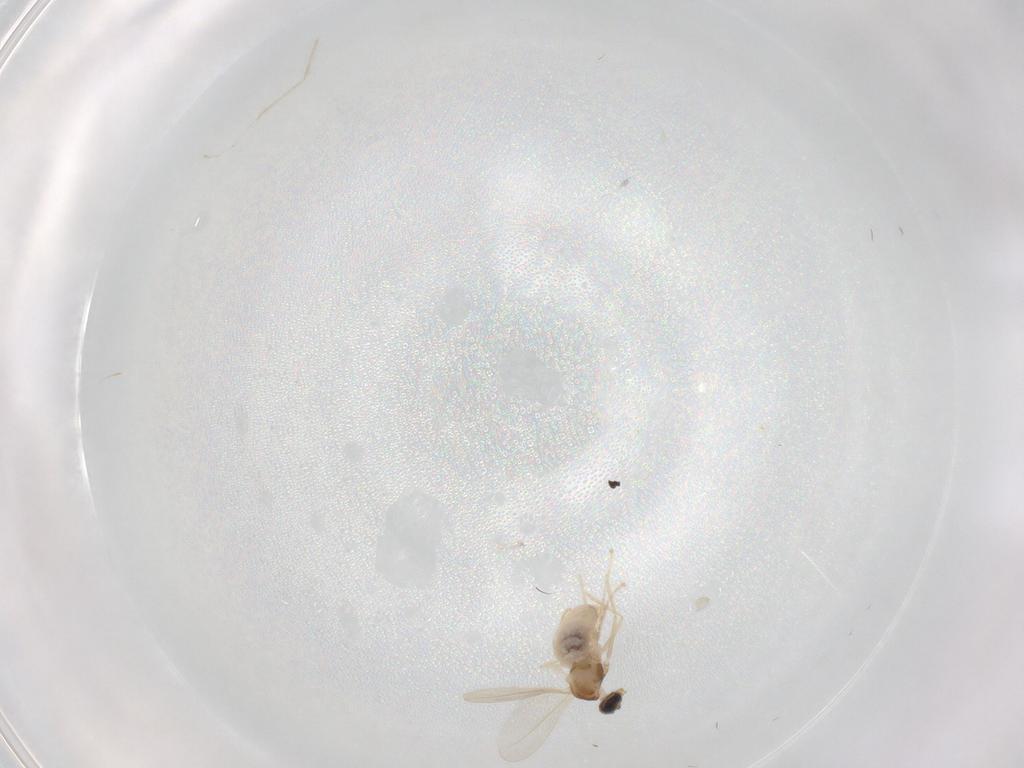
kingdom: Animalia
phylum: Arthropoda
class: Insecta
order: Diptera
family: Cecidomyiidae
